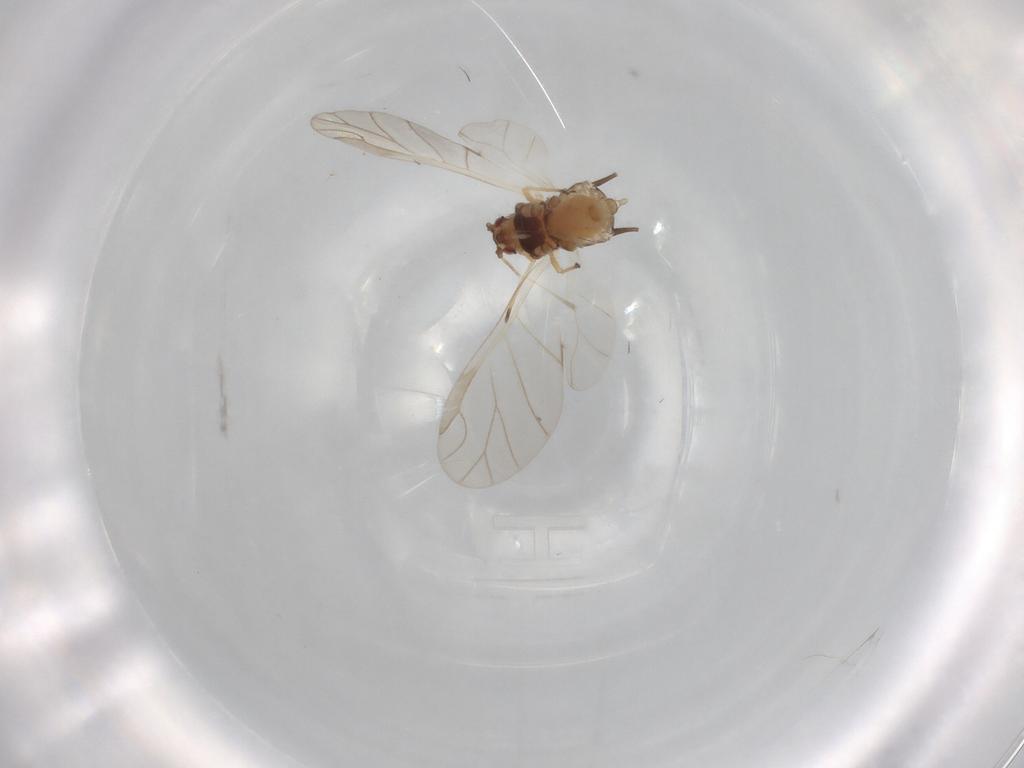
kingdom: Animalia
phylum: Arthropoda
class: Insecta
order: Hemiptera
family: Aphididae
